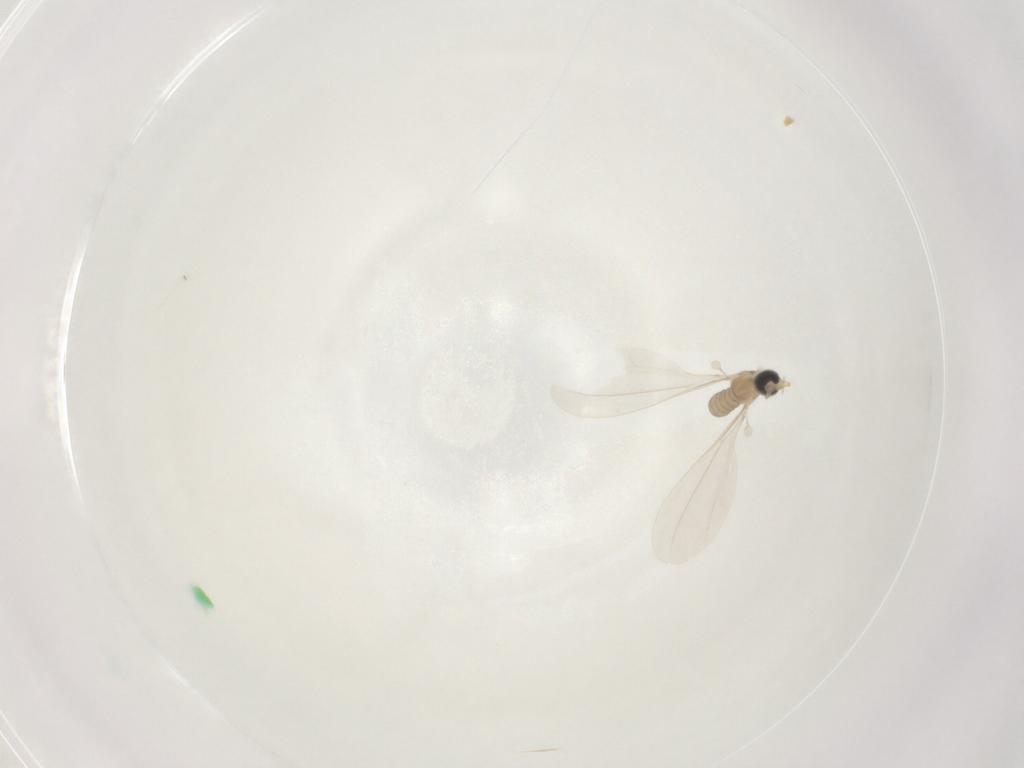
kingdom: Animalia
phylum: Arthropoda
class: Insecta
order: Diptera
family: Cecidomyiidae
